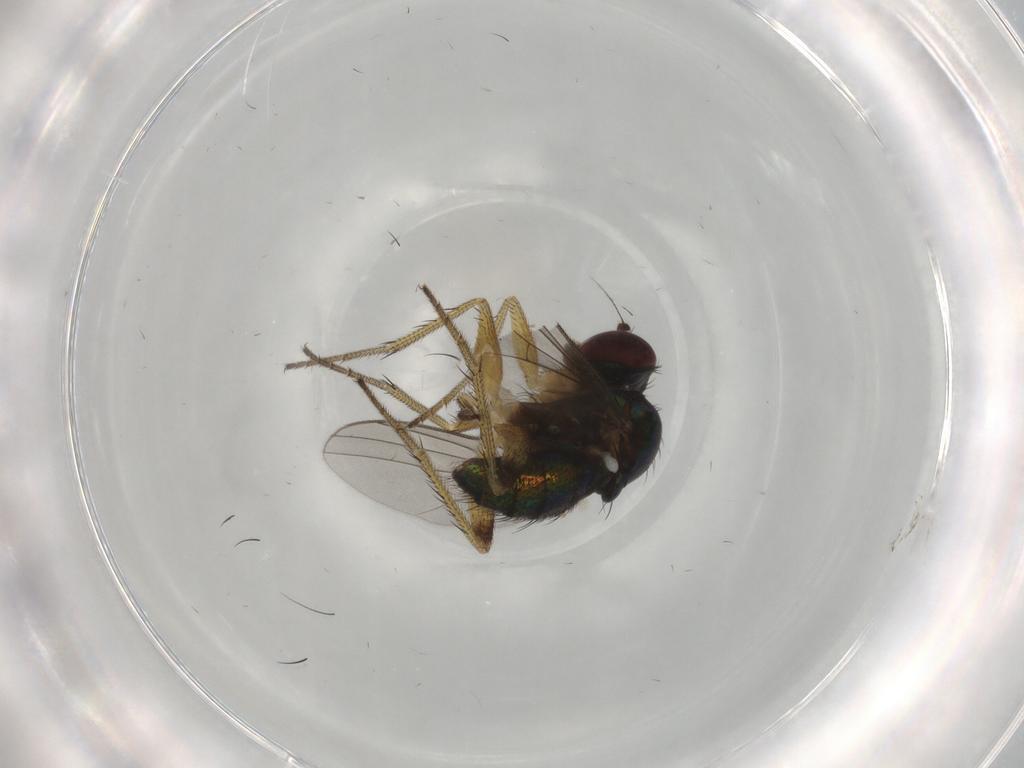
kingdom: Animalia
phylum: Arthropoda
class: Insecta
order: Diptera
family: Dolichopodidae
